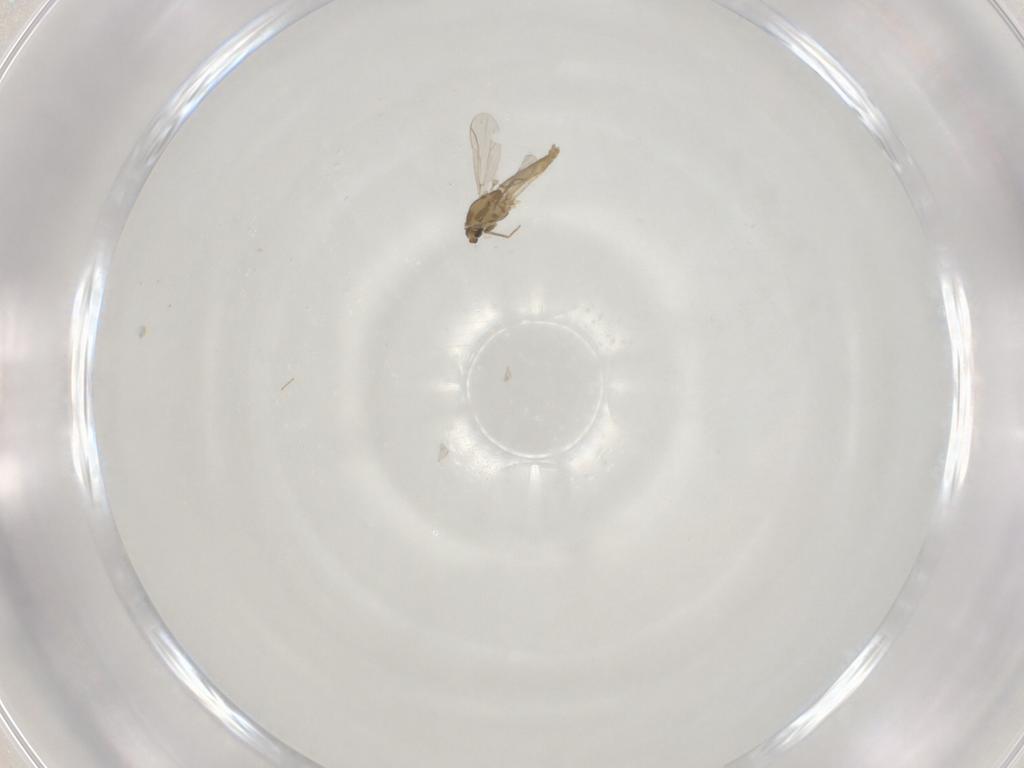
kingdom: Animalia
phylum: Arthropoda
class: Insecta
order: Diptera
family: Chironomidae
